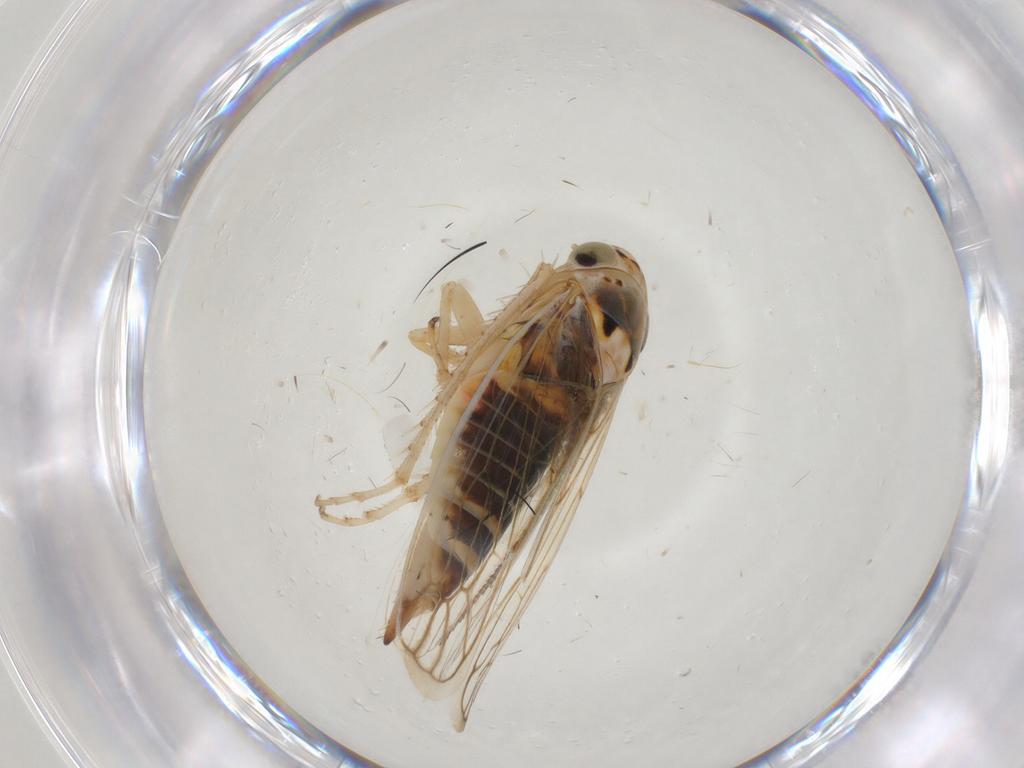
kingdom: Animalia
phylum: Arthropoda
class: Insecta
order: Hemiptera
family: Cicadellidae
